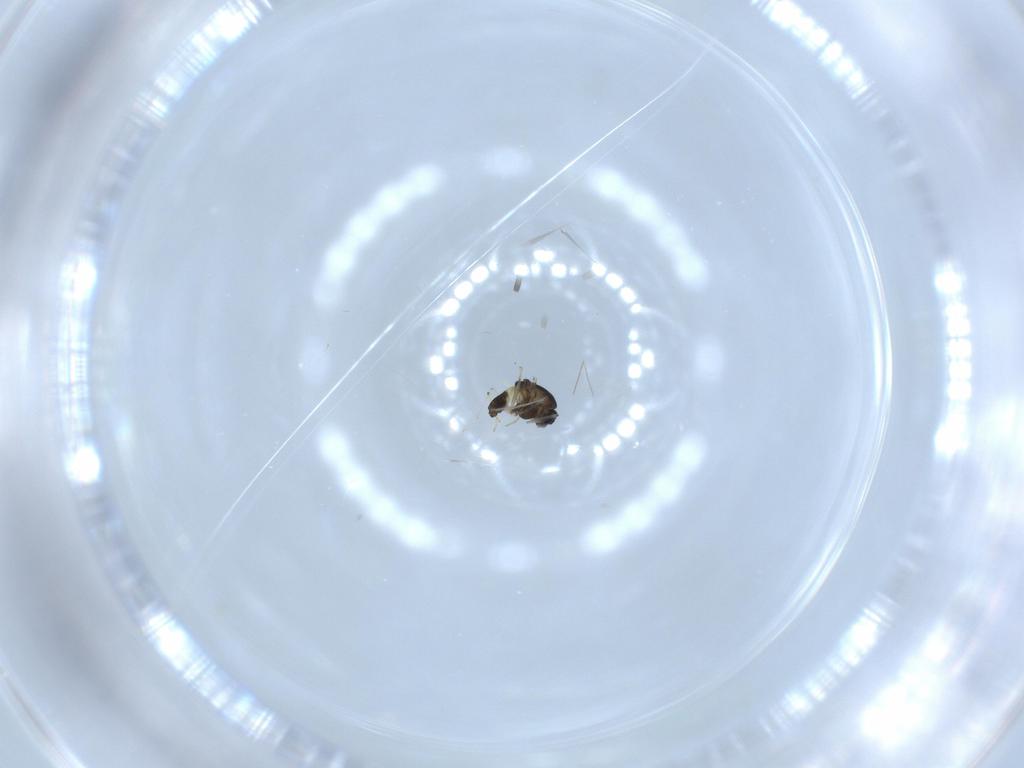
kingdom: Animalia
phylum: Arthropoda
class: Insecta
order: Diptera
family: Chironomidae
